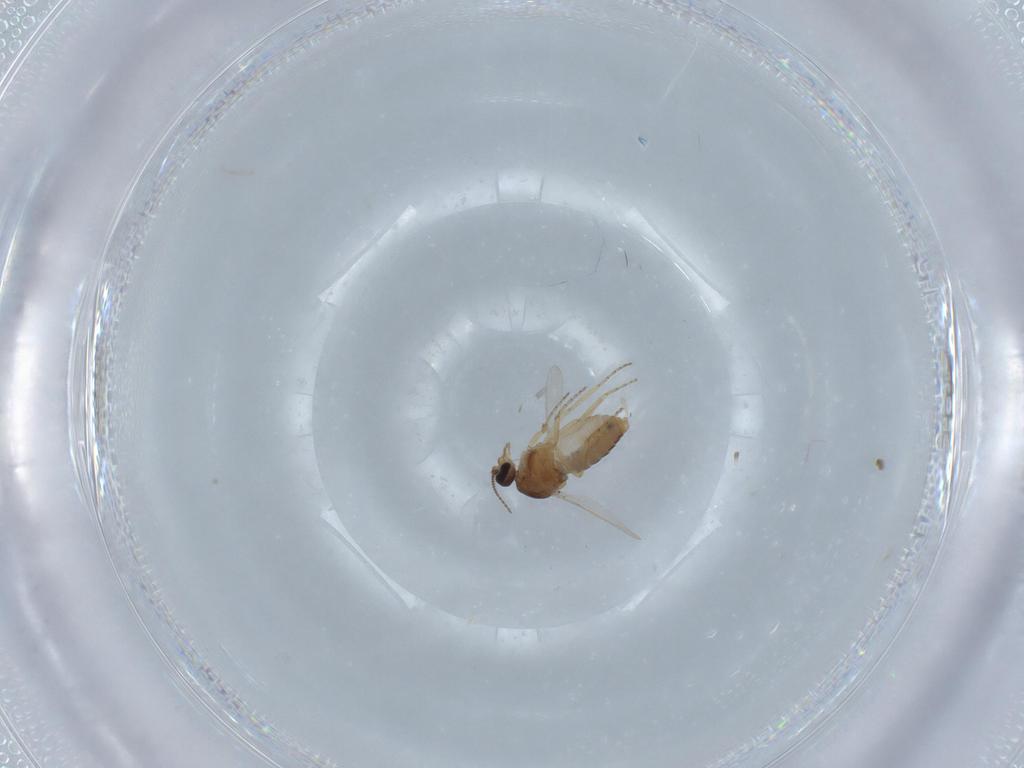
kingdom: Animalia
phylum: Arthropoda
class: Insecta
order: Diptera
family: Ceratopogonidae
